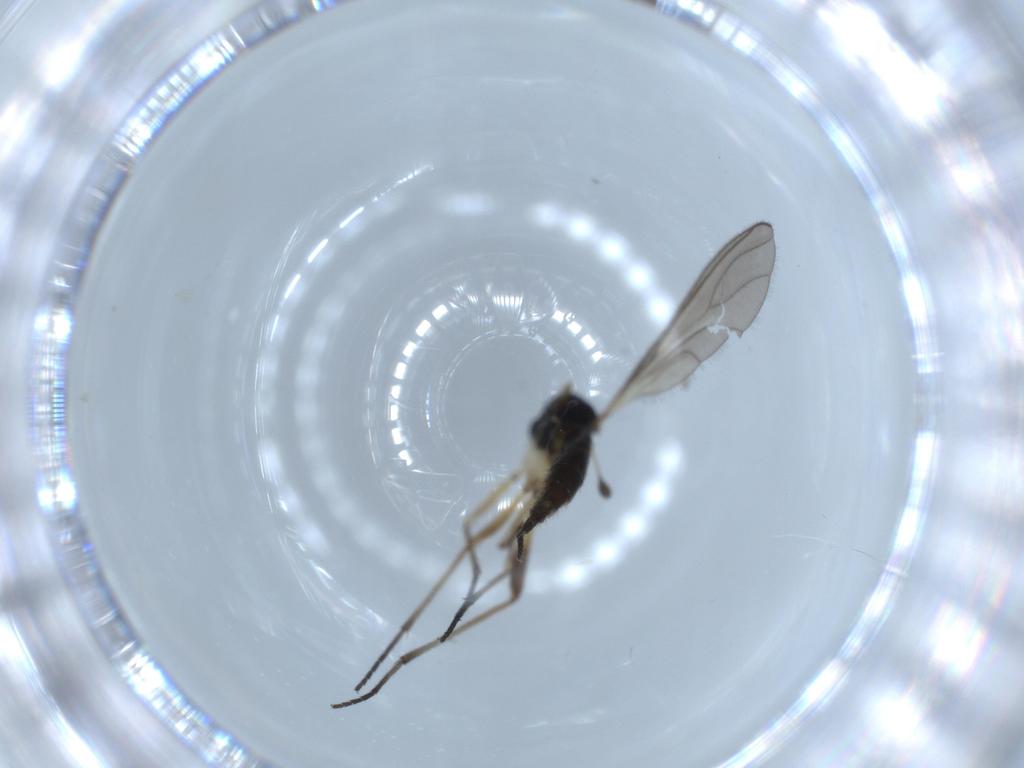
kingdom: Animalia
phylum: Arthropoda
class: Insecta
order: Diptera
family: Sciaridae
